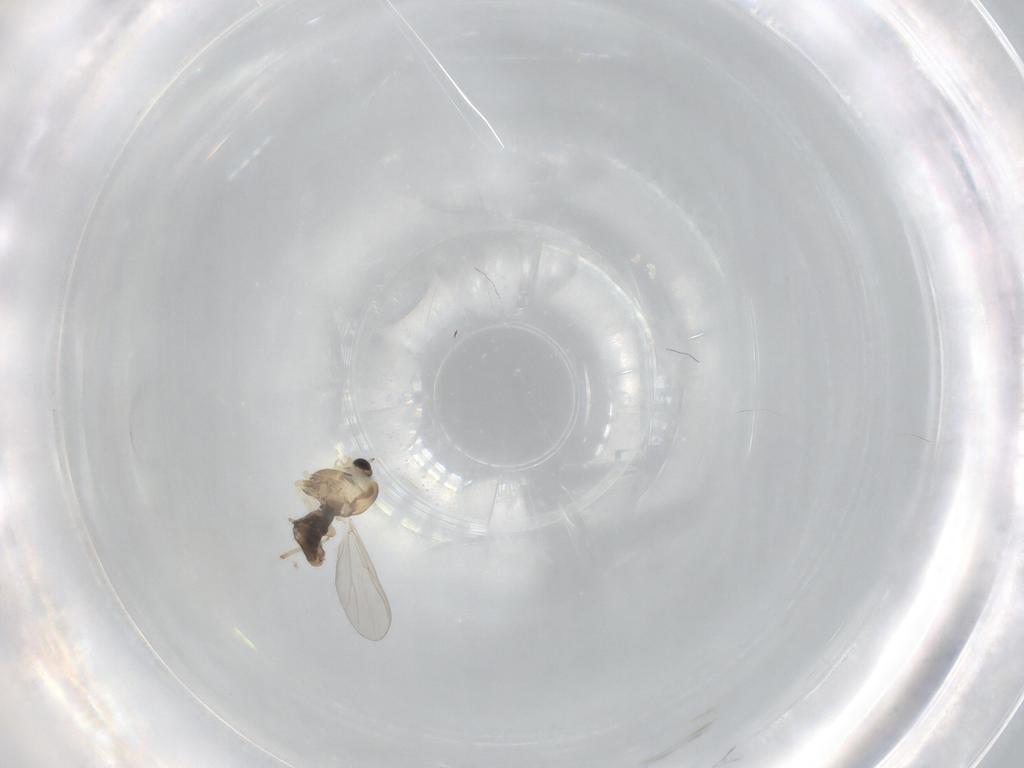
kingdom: Animalia
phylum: Arthropoda
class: Insecta
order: Diptera
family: Chironomidae
